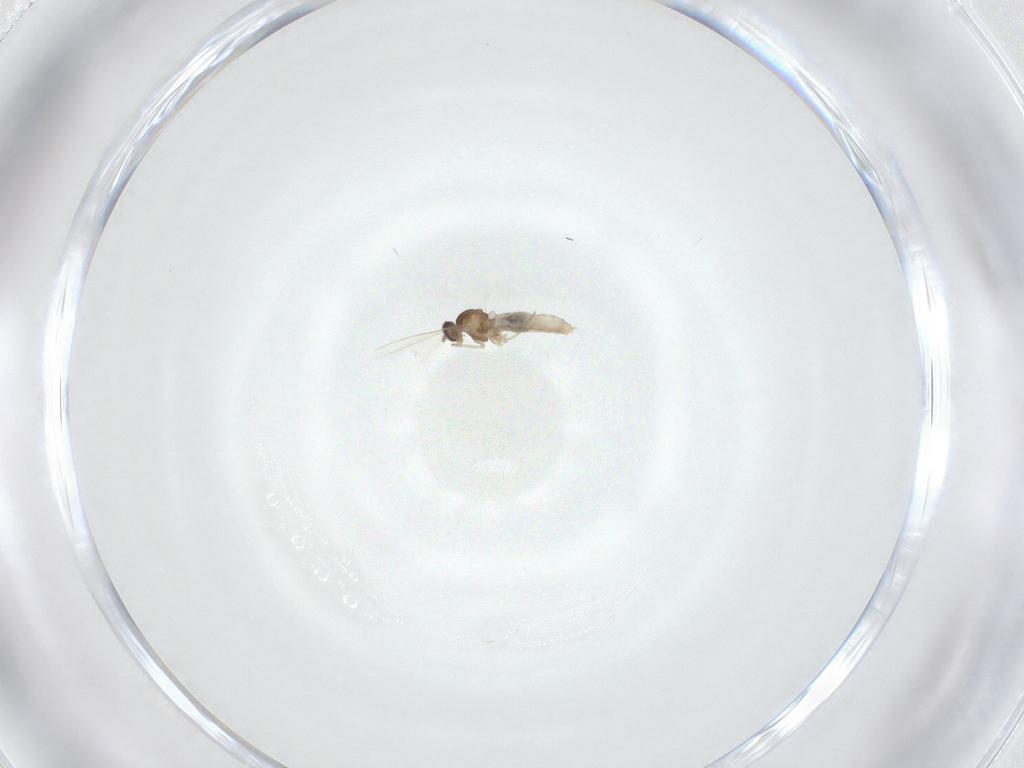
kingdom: Animalia
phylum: Arthropoda
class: Insecta
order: Diptera
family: Cecidomyiidae
